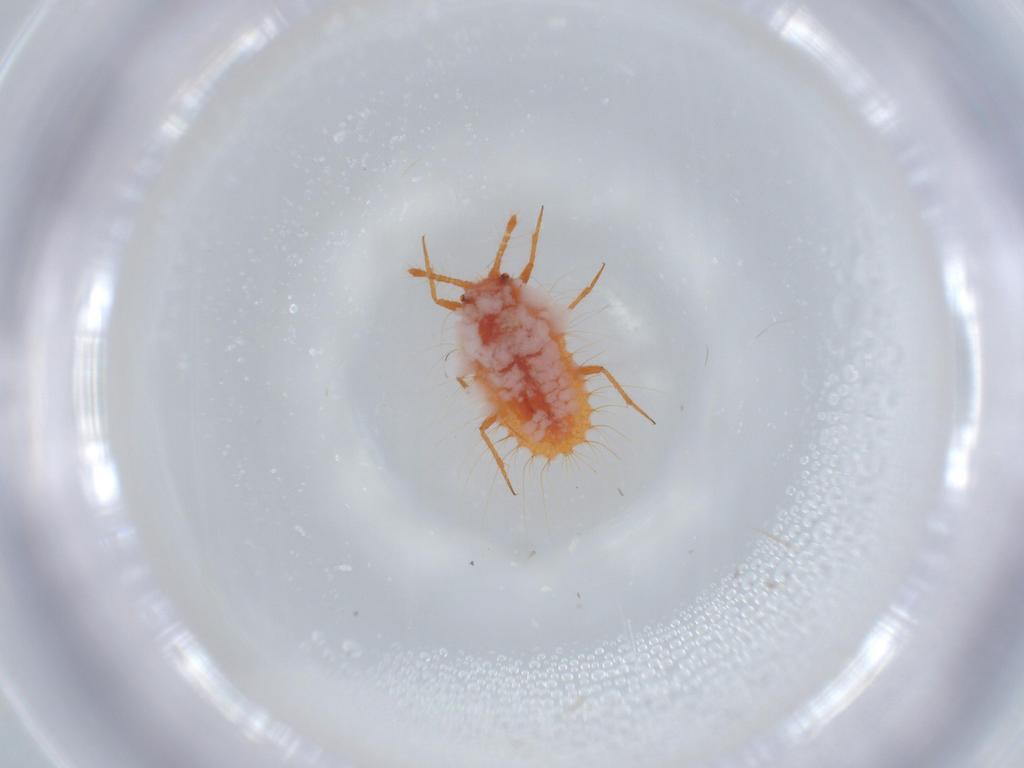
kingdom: Animalia
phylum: Arthropoda
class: Insecta
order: Hemiptera
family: Coccoidea_incertae_sedis
